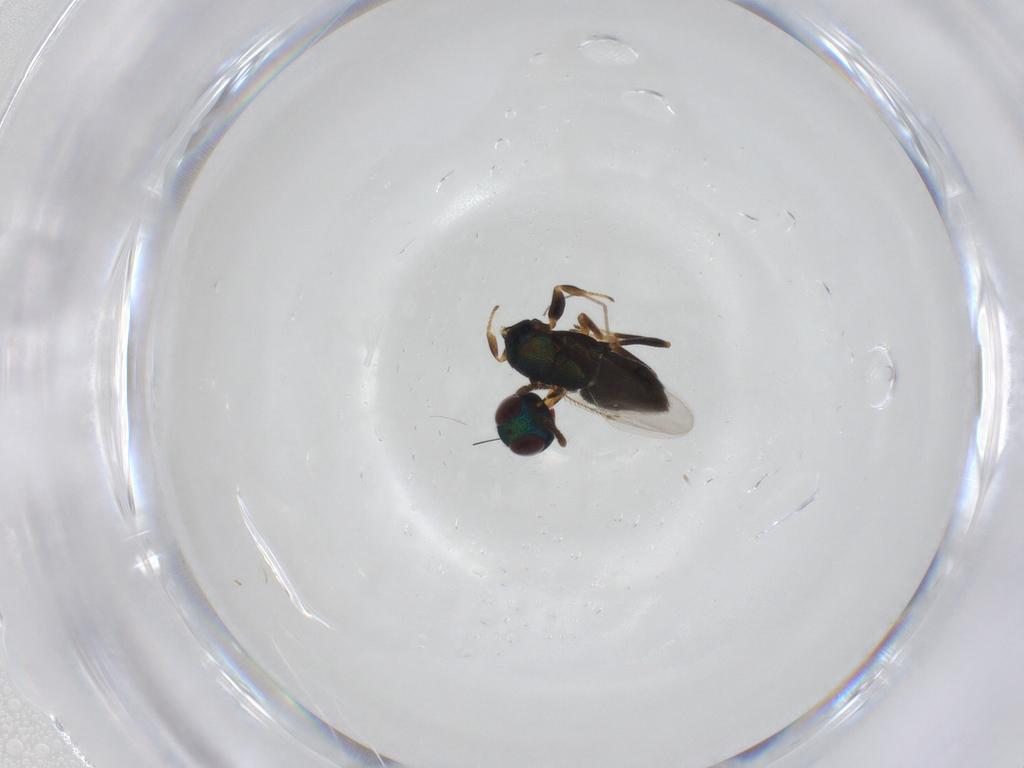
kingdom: Animalia
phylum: Arthropoda
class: Insecta
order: Hymenoptera
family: Encyrtidae
